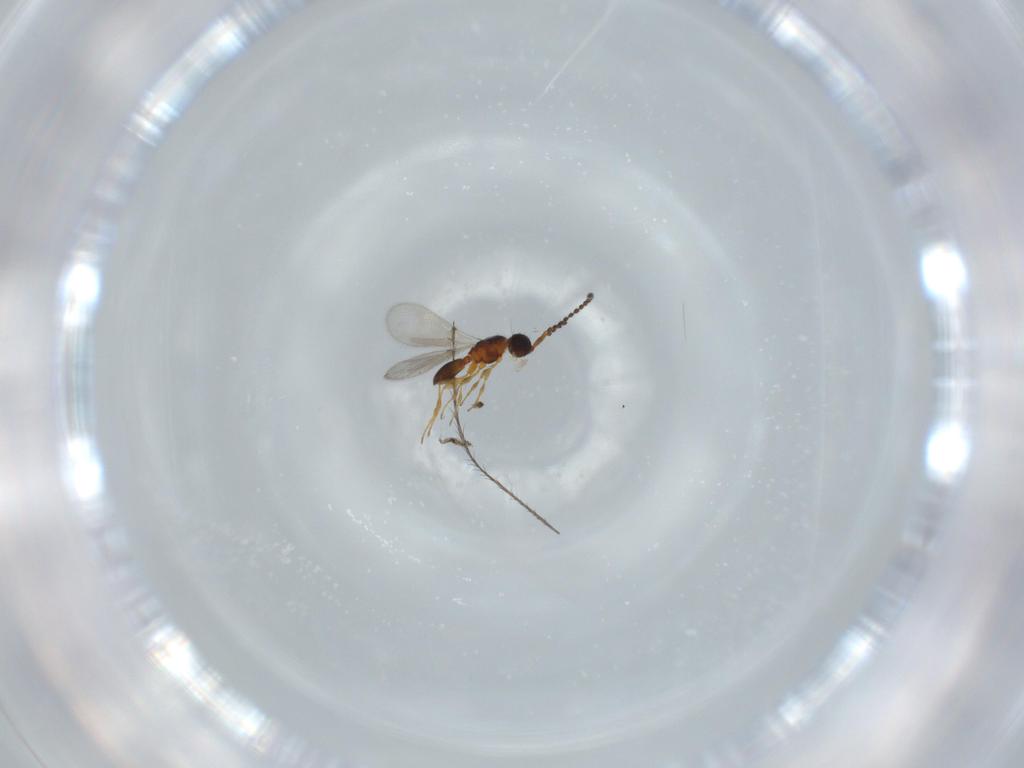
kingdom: Animalia
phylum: Arthropoda
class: Insecta
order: Hymenoptera
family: Diapriidae
